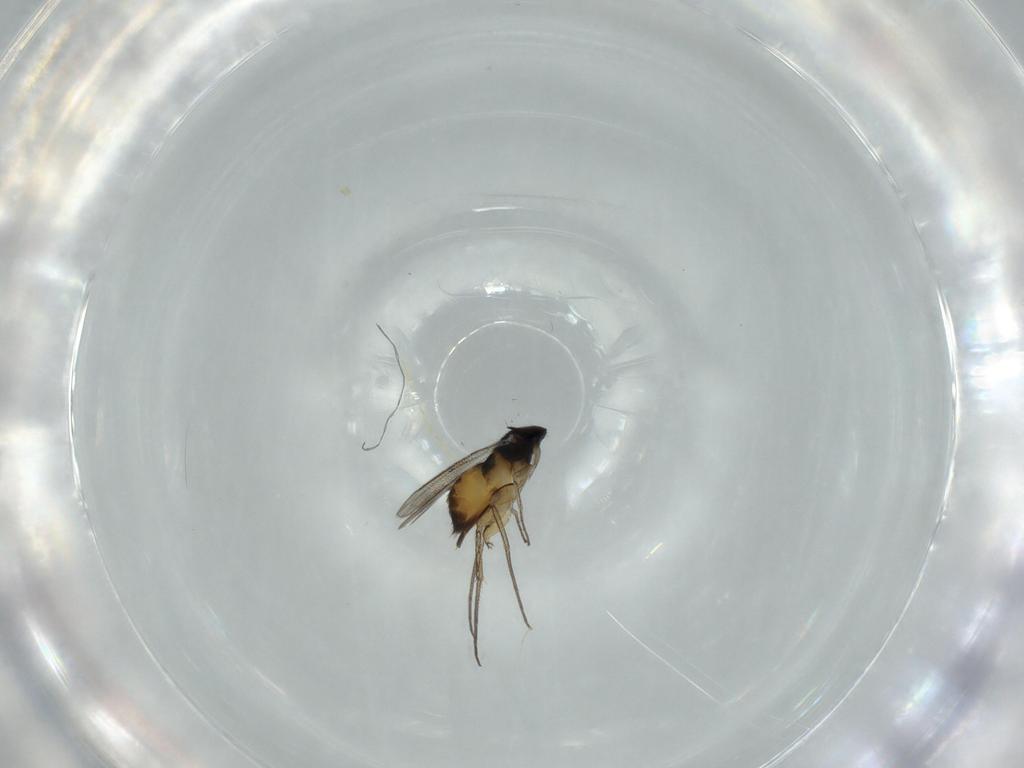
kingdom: Animalia
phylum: Arthropoda
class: Insecta
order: Hymenoptera
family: Eulophidae
